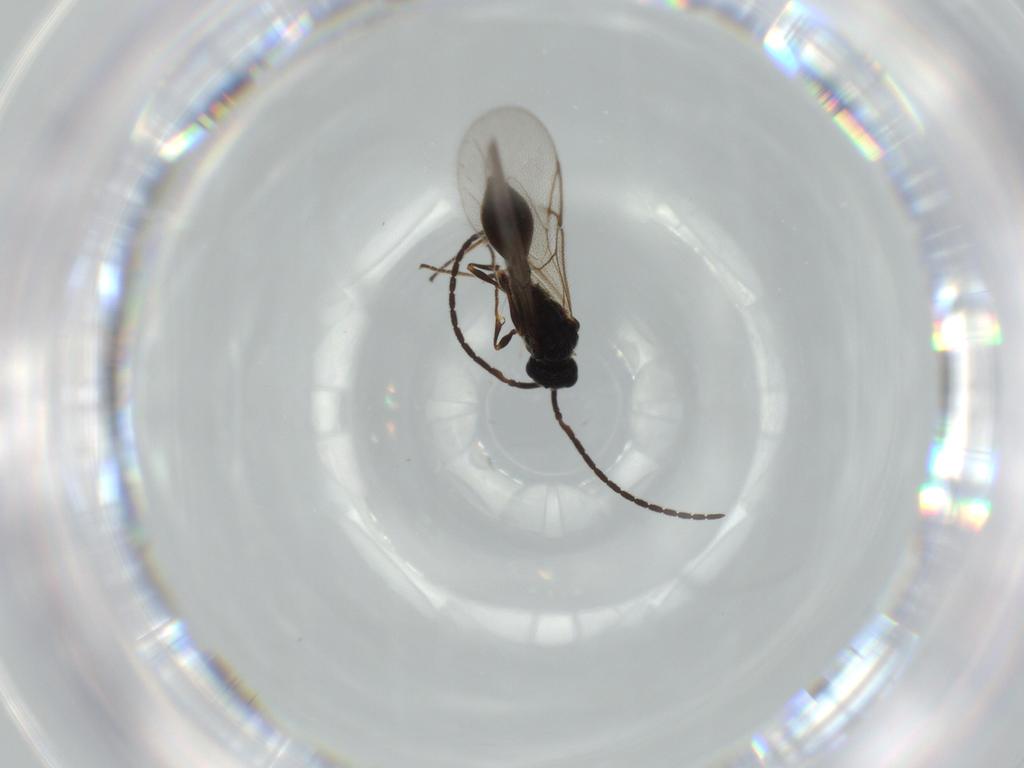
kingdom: Animalia
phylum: Arthropoda
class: Insecta
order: Hymenoptera
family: Diapriidae
